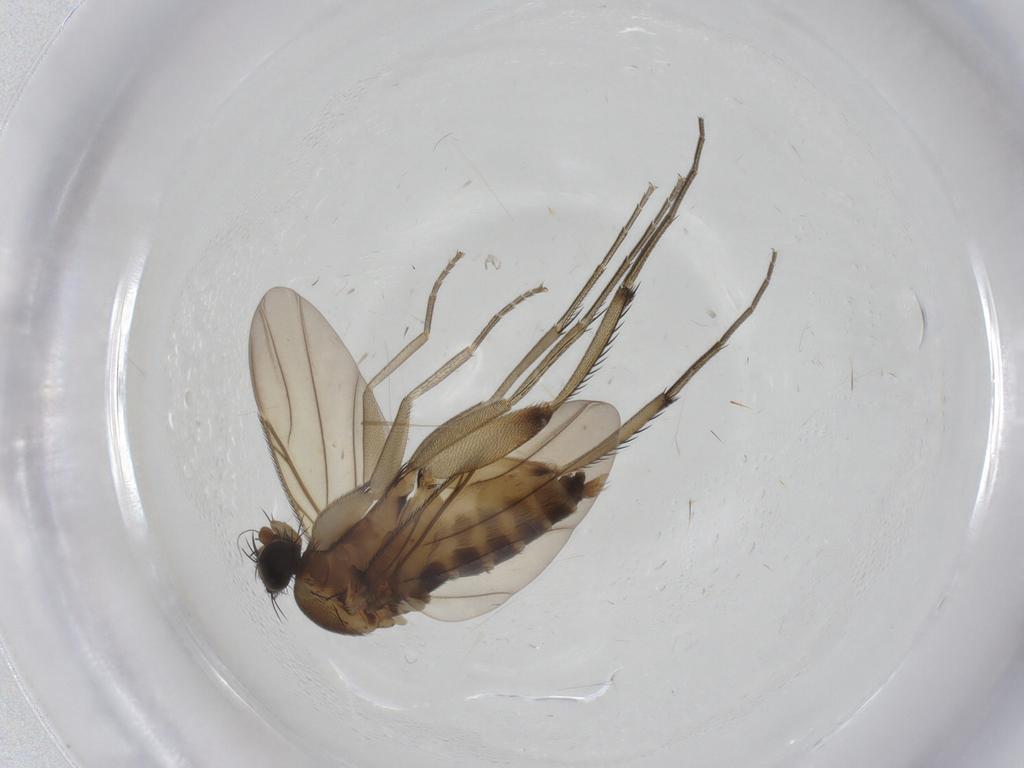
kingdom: Animalia
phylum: Arthropoda
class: Insecta
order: Diptera
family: Phoridae
